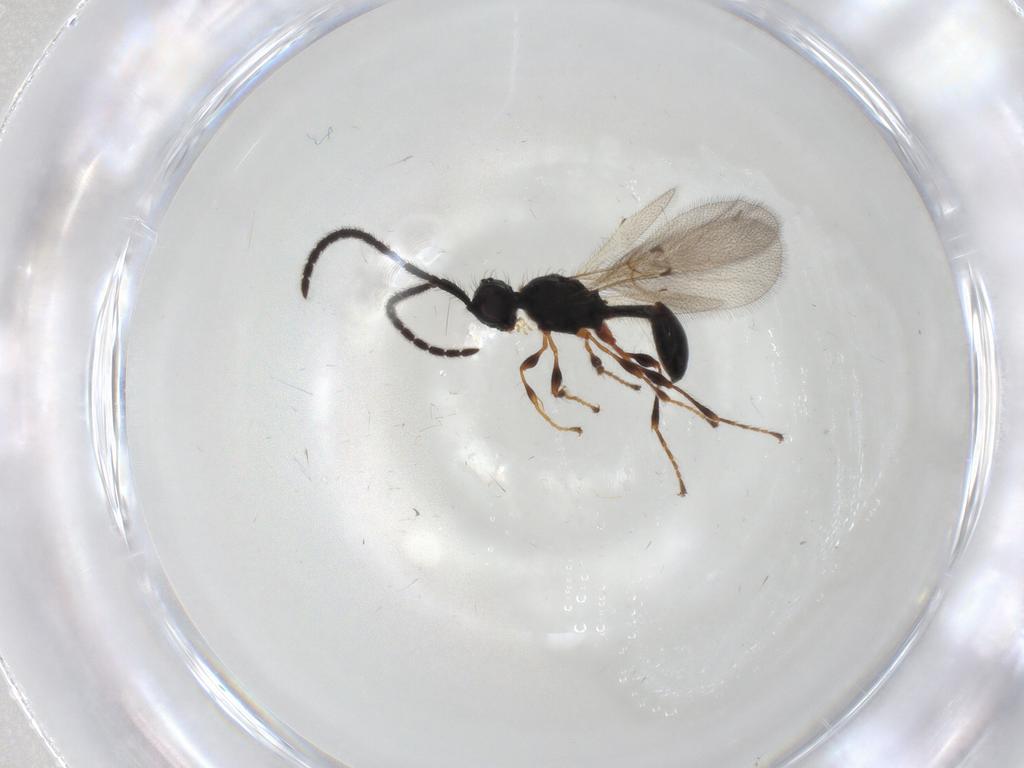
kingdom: Animalia
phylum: Arthropoda
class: Insecta
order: Hymenoptera
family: Diapriidae
